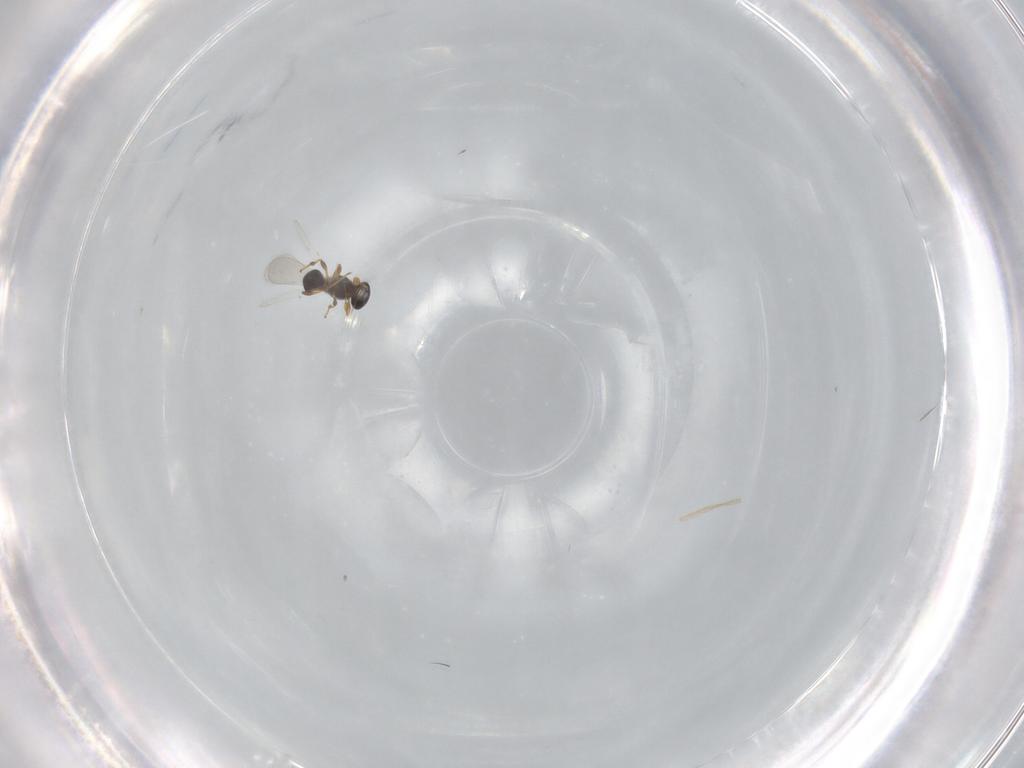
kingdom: Animalia
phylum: Arthropoda
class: Insecta
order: Hymenoptera
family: Platygastridae
